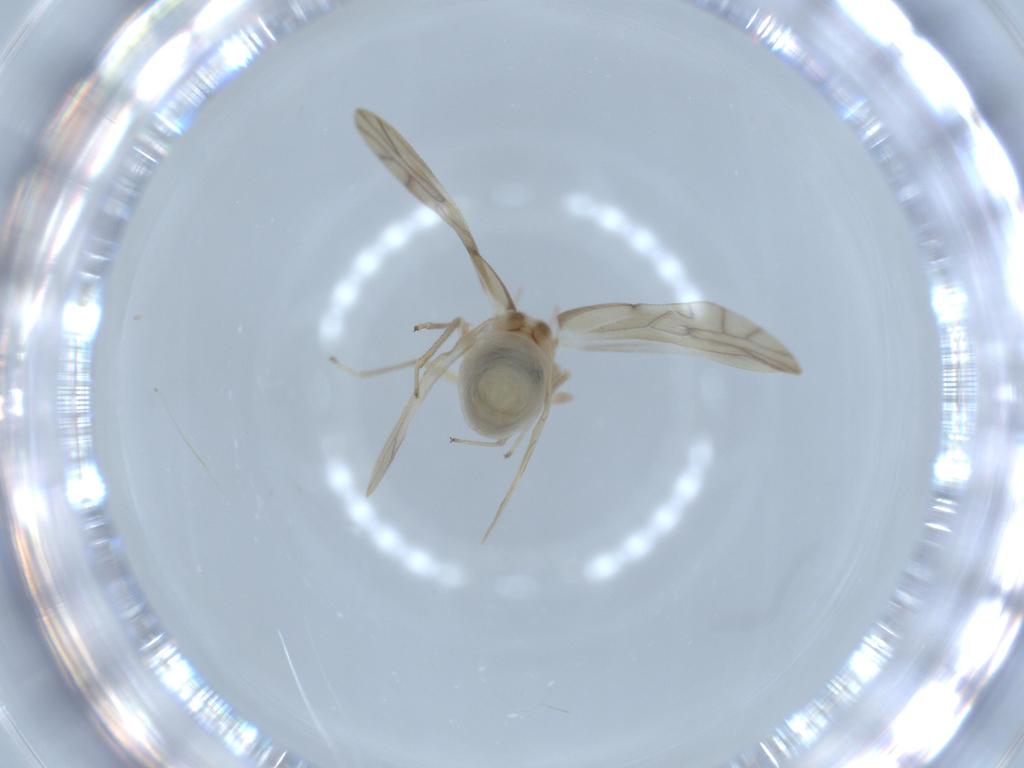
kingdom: Animalia
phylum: Arthropoda
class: Insecta
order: Psocodea
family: Caeciliusidae
